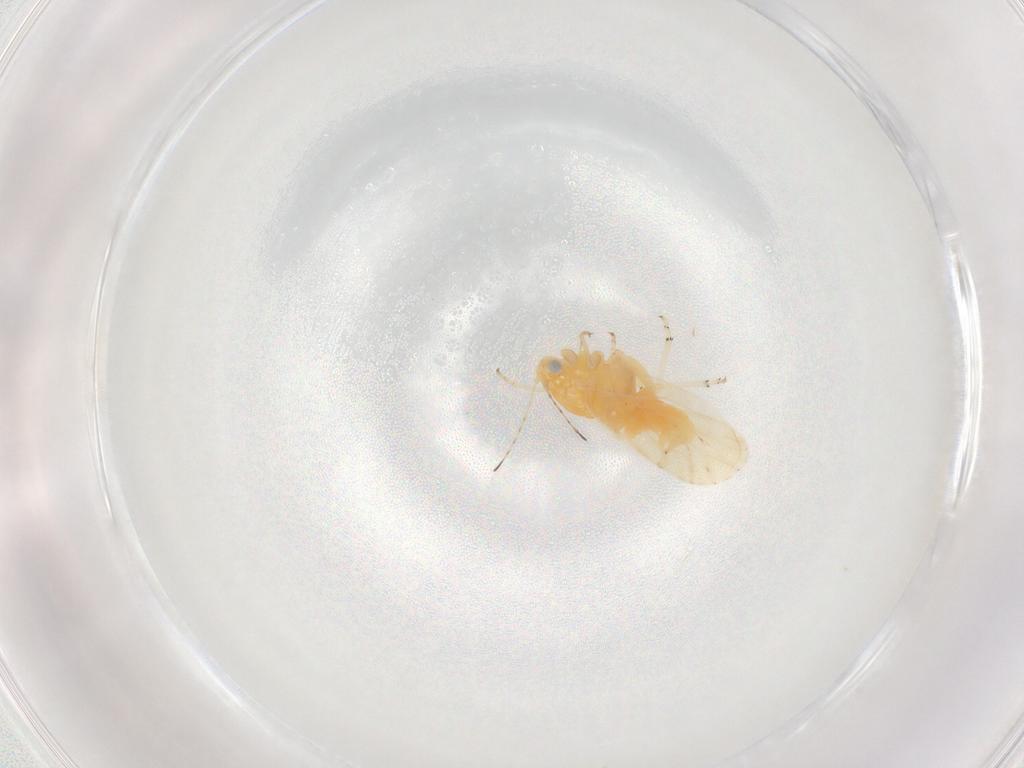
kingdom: Animalia
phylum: Arthropoda
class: Insecta
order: Hemiptera
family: Psyllidae
